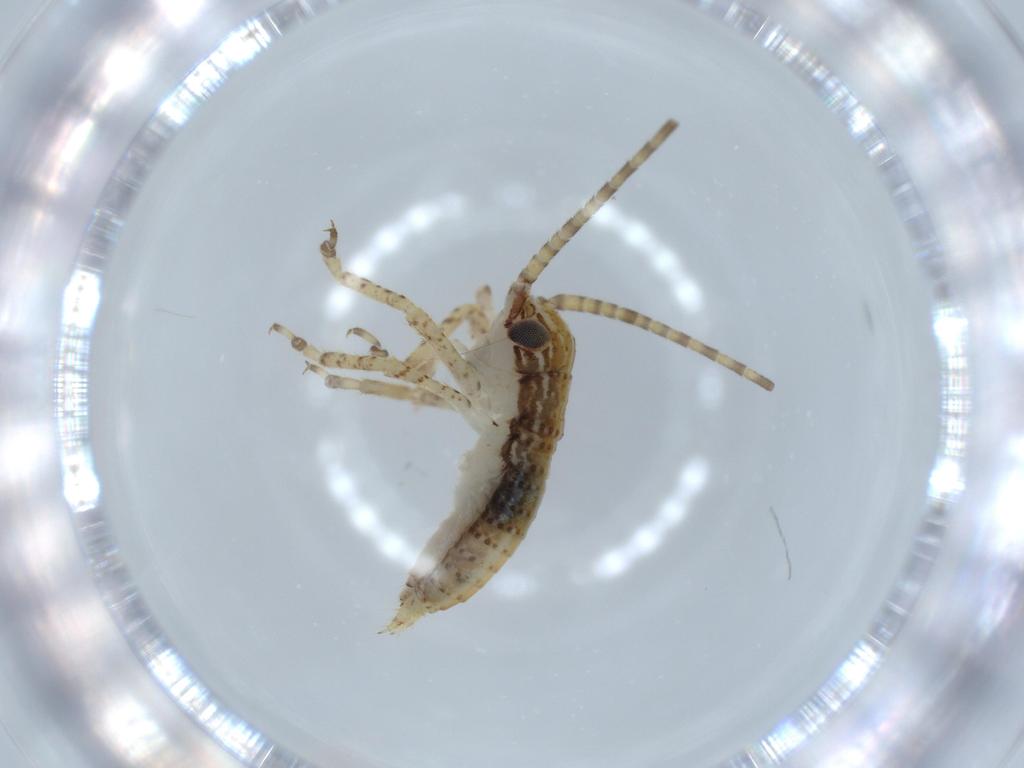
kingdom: Animalia
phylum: Arthropoda
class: Insecta
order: Orthoptera
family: Gryllidae
